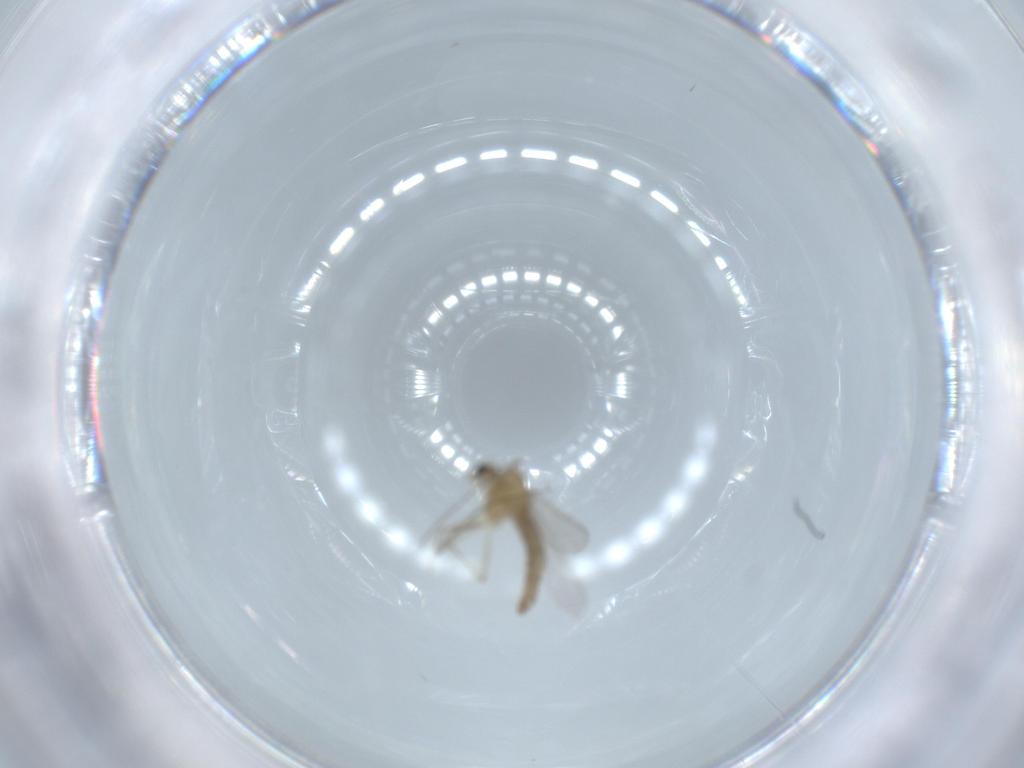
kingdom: Animalia
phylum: Arthropoda
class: Insecta
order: Diptera
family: Chironomidae
